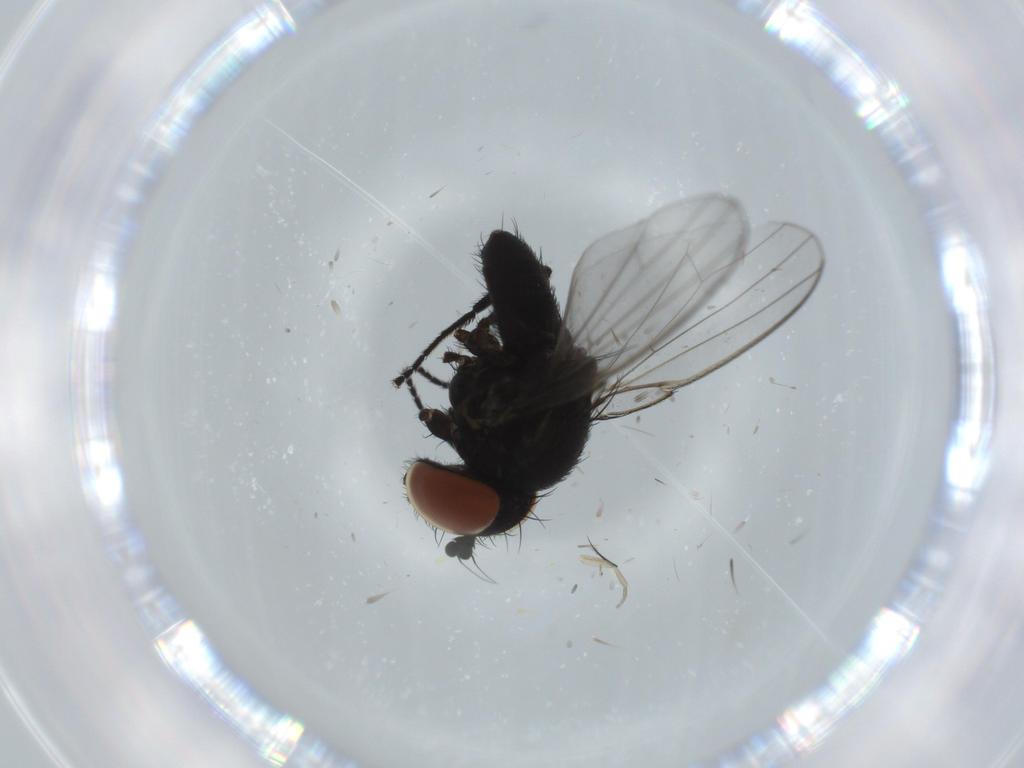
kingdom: Animalia
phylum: Arthropoda
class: Insecta
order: Diptera
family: Milichiidae
